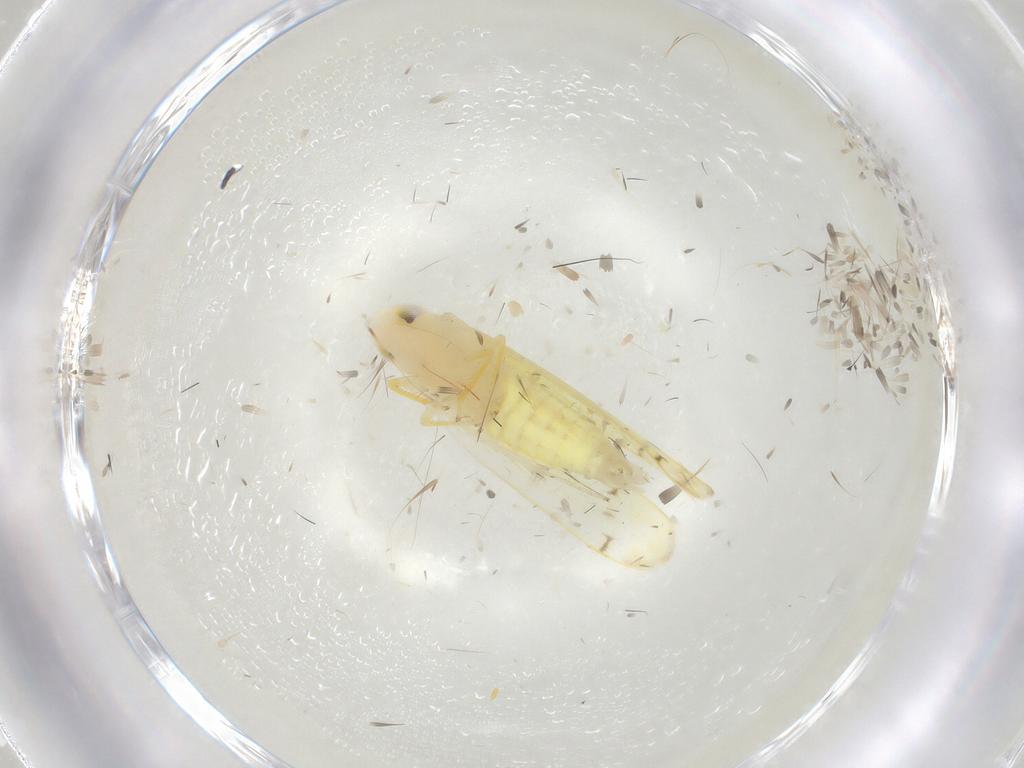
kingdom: Animalia
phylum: Arthropoda
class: Insecta
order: Hemiptera
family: Cicadellidae
